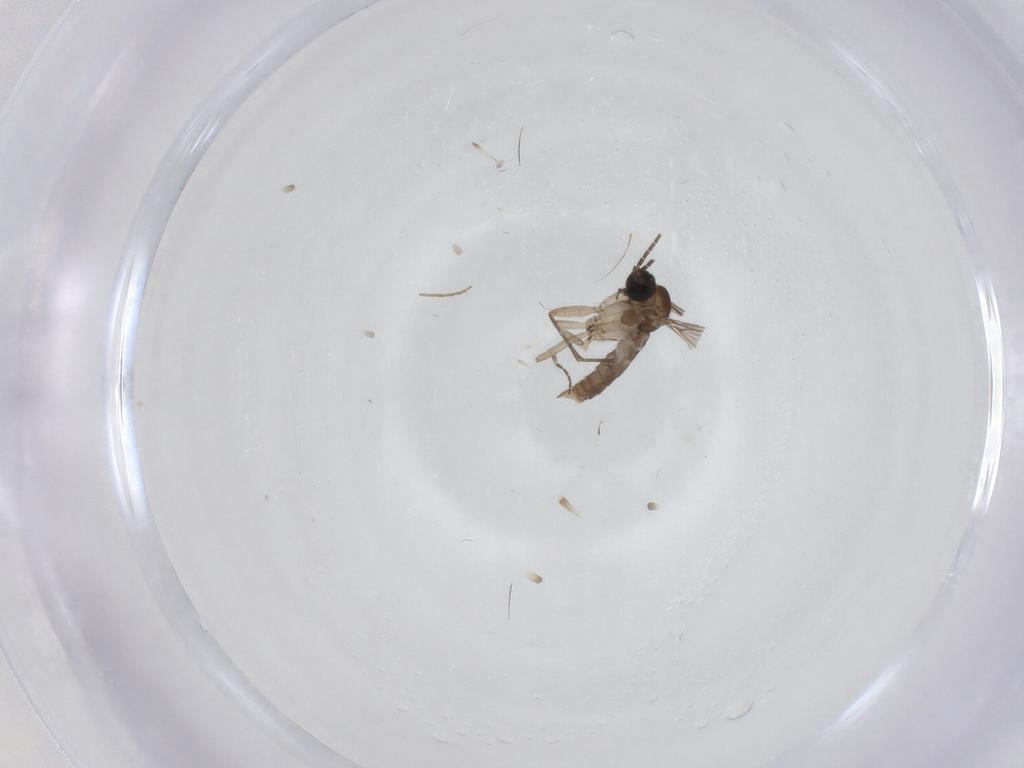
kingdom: Animalia
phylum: Arthropoda
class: Insecta
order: Diptera
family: Sciaridae
